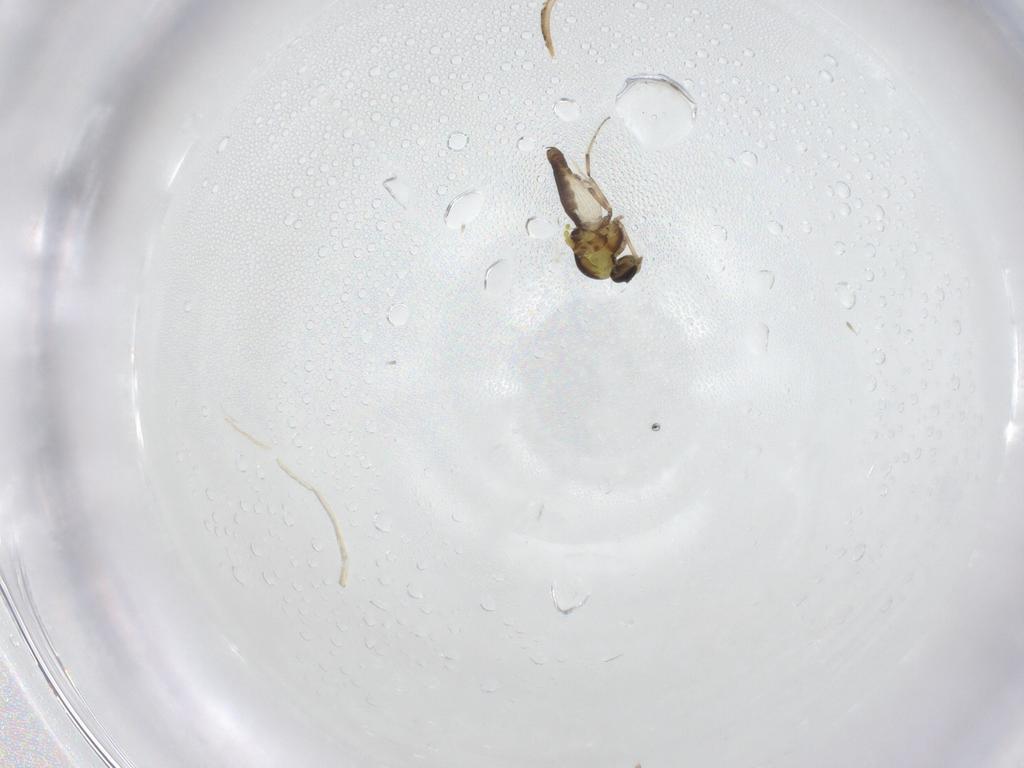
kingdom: Animalia
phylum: Arthropoda
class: Insecta
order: Diptera
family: Ceratopogonidae
